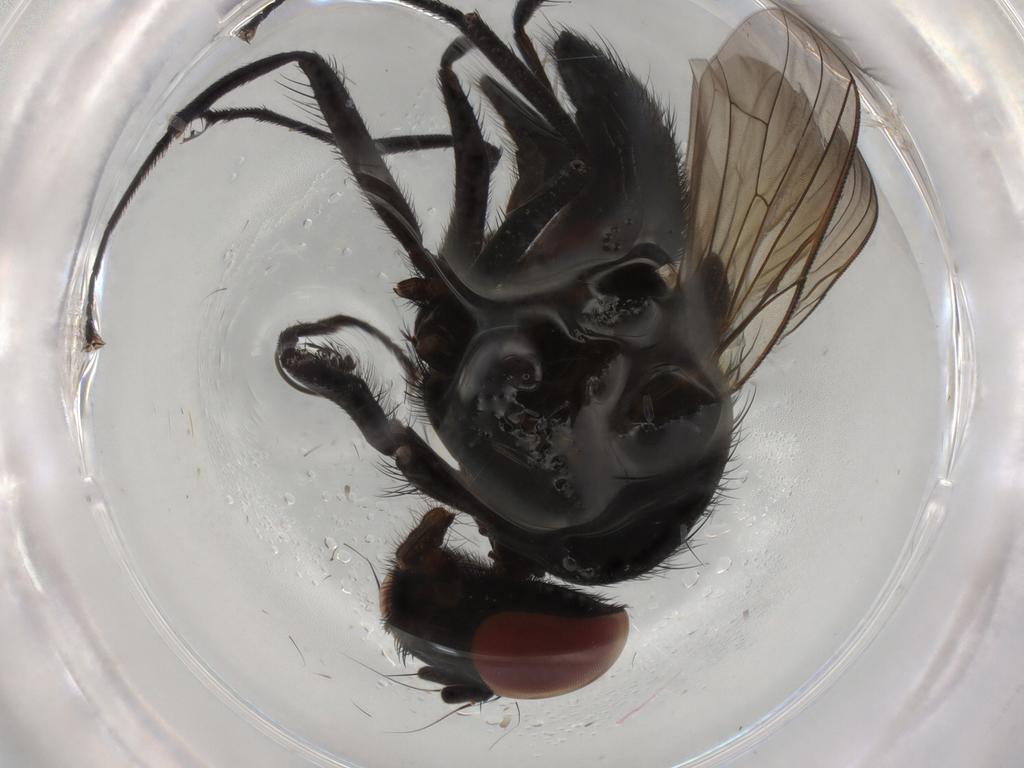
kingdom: Animalia
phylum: Arthropoda
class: Insecta
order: Diptera
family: Muscidae
